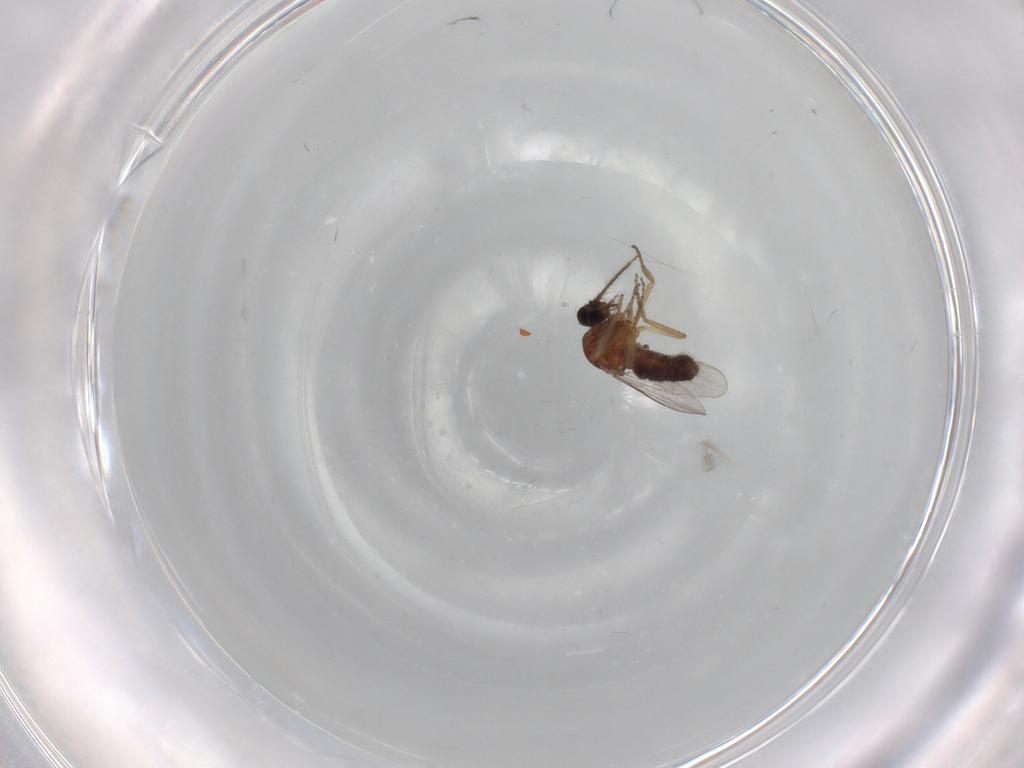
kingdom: Animalia
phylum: Arthropoda
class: Insecta
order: Diptera
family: Ceratopogonidae
